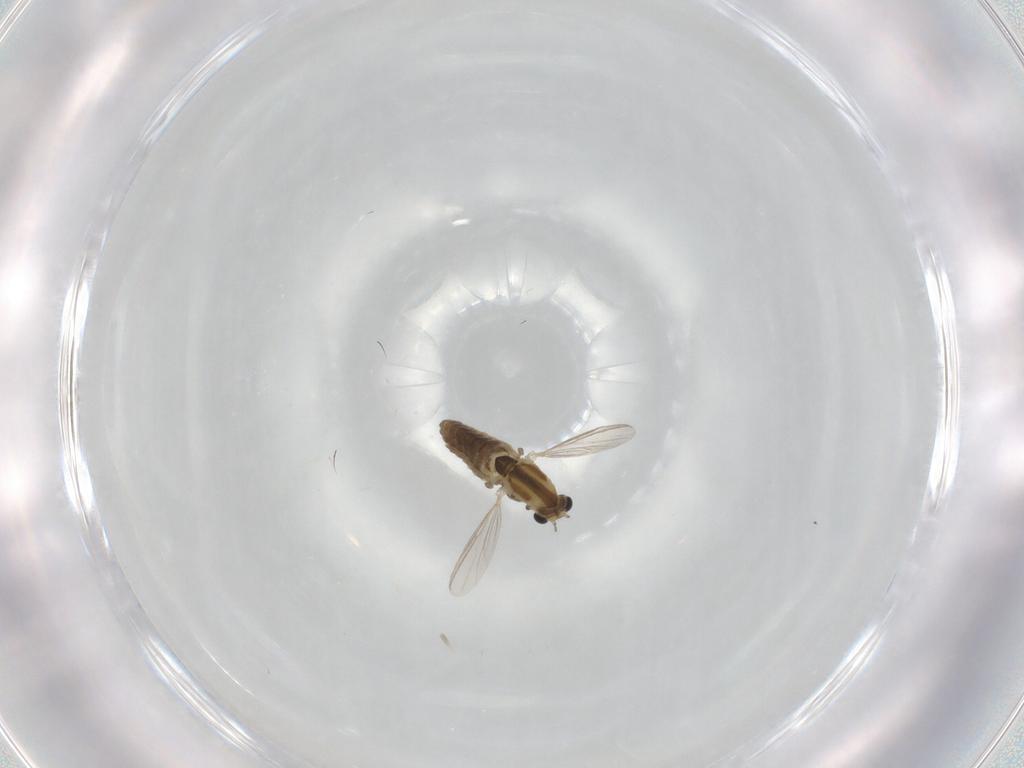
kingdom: Animalia
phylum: Arthropoda
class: Insecta
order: Diptera
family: Chironomidae
